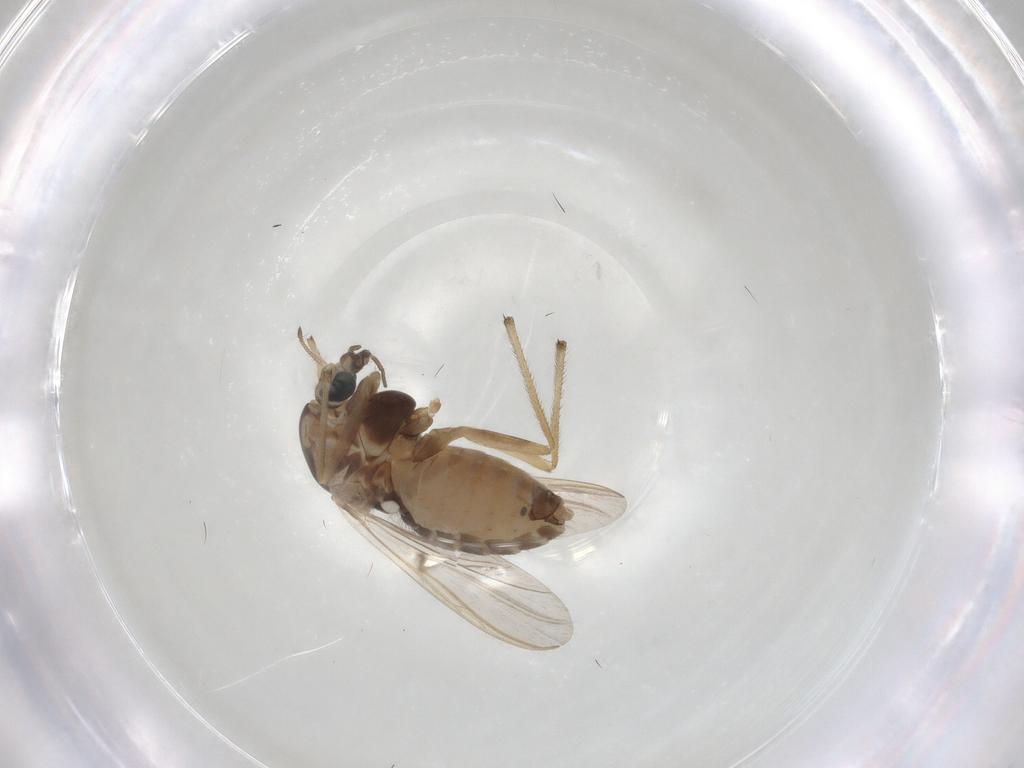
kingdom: Animalia
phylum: Arthropoda
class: Insecta
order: Diptera
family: Chironomidae
